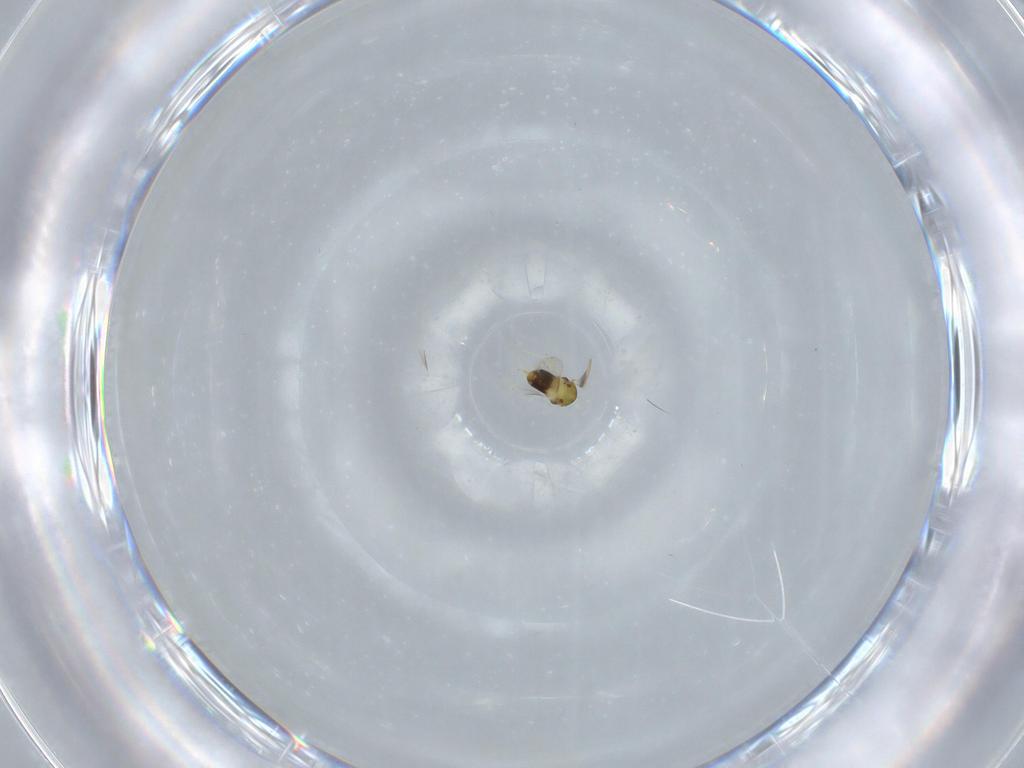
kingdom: Animalia
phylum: Arthropoda
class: Insecta
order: Hymenoptera
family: Aphelinidae
